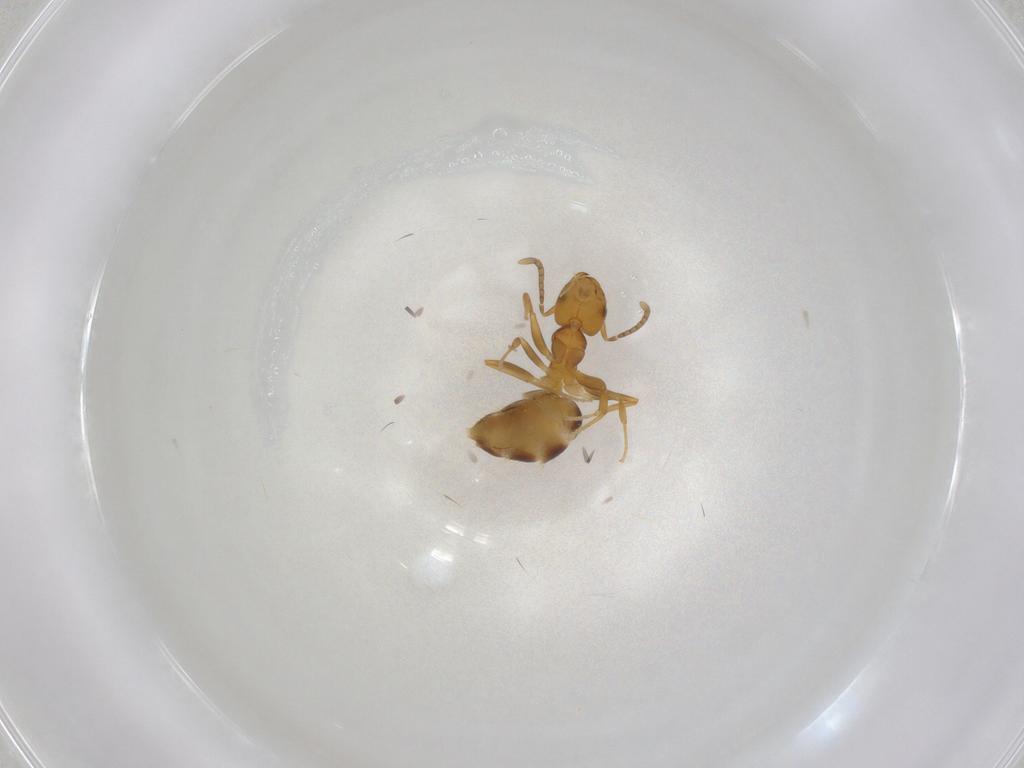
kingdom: Animalia
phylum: Arthropoda
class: Insecta
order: Hymenoptera
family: Formicidae
